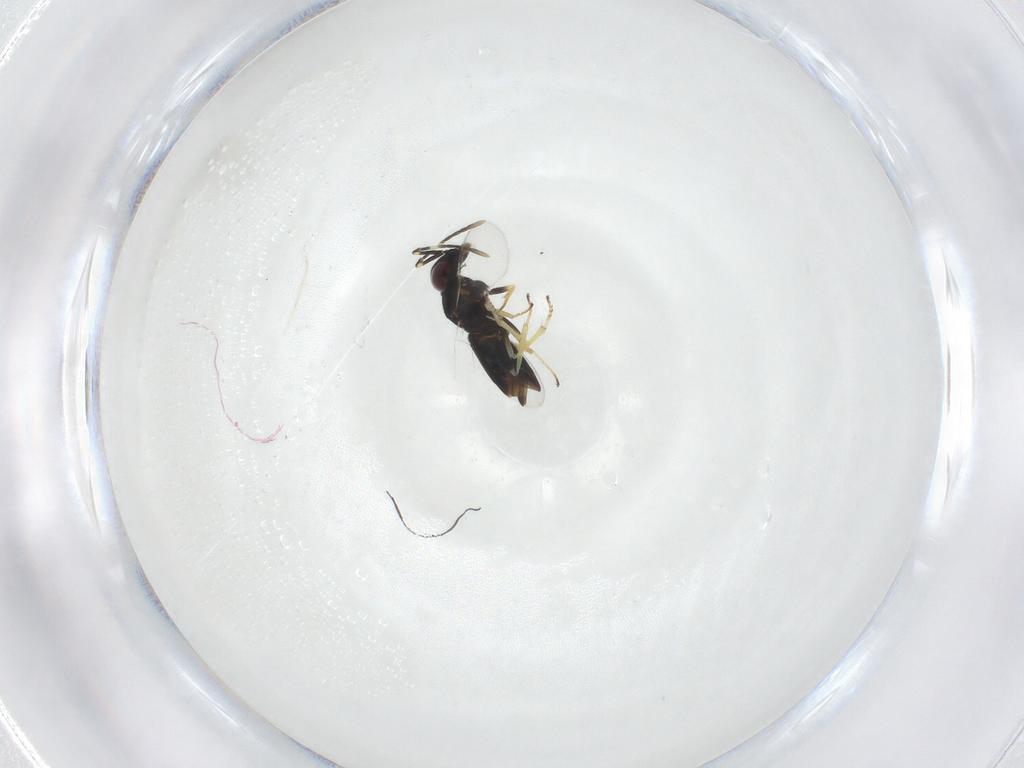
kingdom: Animalia
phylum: Arthropoda
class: Insecta
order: Hymenoptera
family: Encyrtidae
